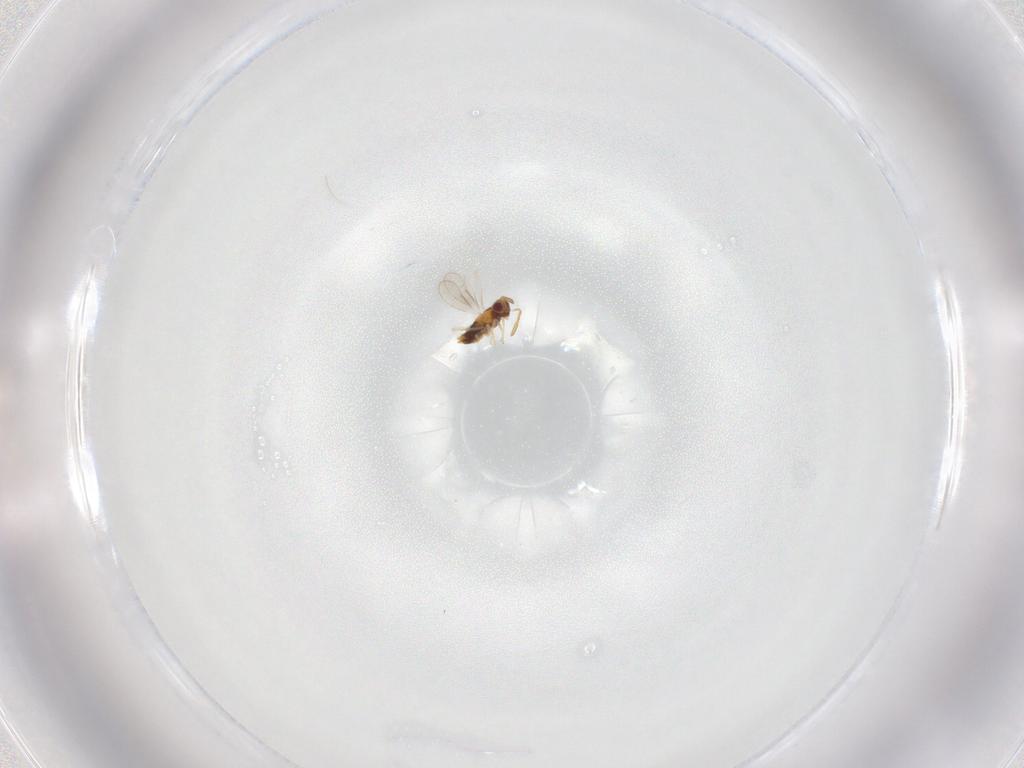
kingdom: Animalia
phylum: Arthropoda
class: Insecta
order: Hymenoptera
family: Aphelinidae
